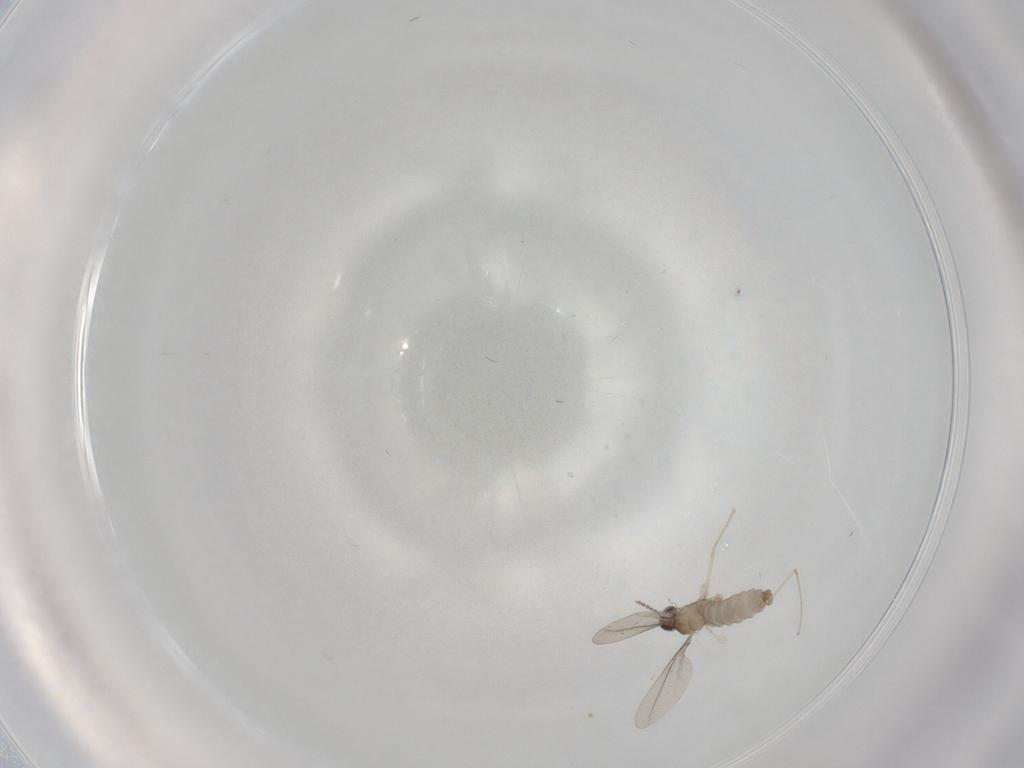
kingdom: Animalia
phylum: Arthropoda
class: Insecta
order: Diptera
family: Cecidomyiidae
